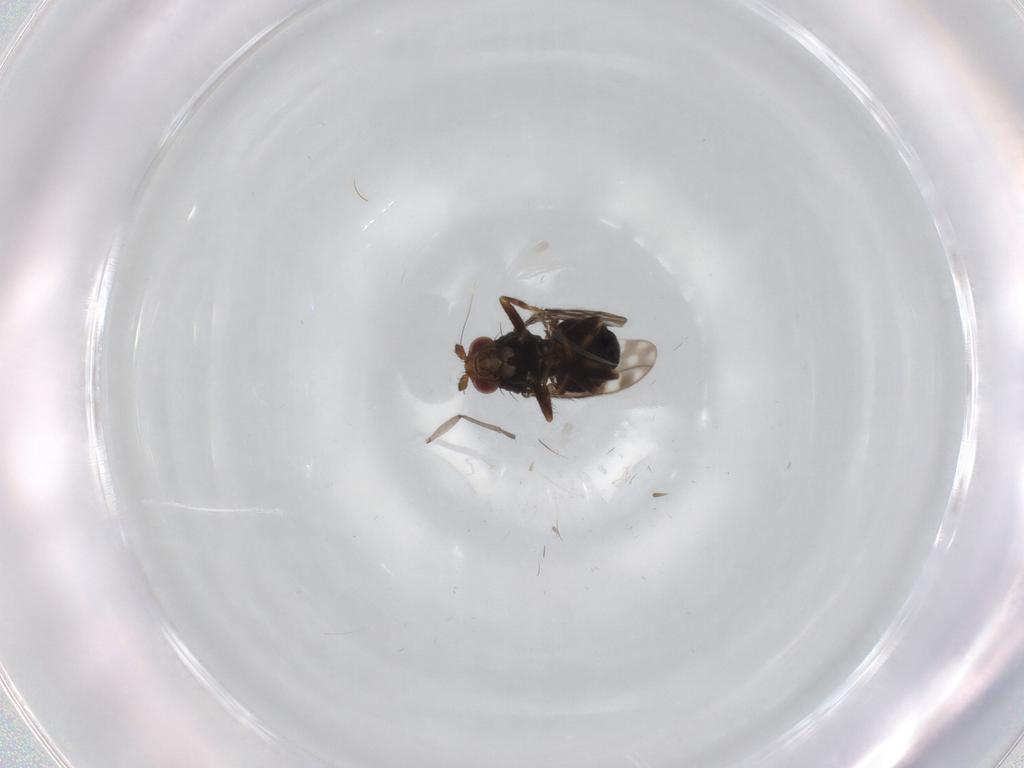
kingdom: Animalia
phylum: Arthropoda
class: Insecta
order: Diptera
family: Sphaeroceridae
